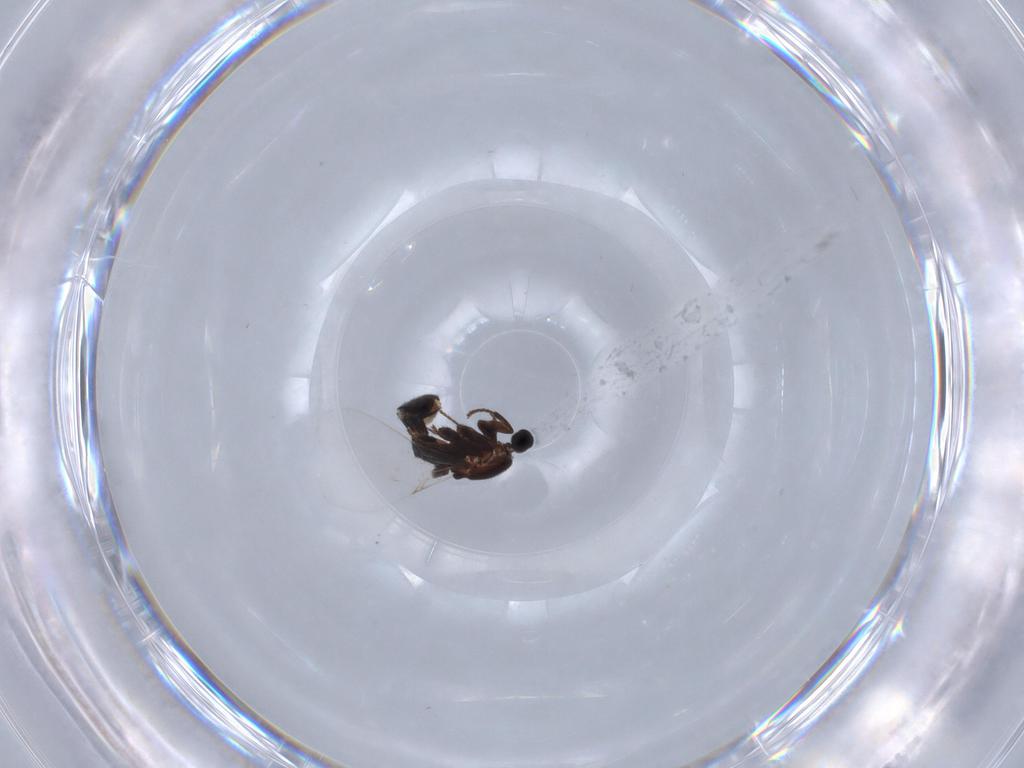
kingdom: Animalia
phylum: Arthropoda
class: Insecta
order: Diptera
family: Scatopsidae
